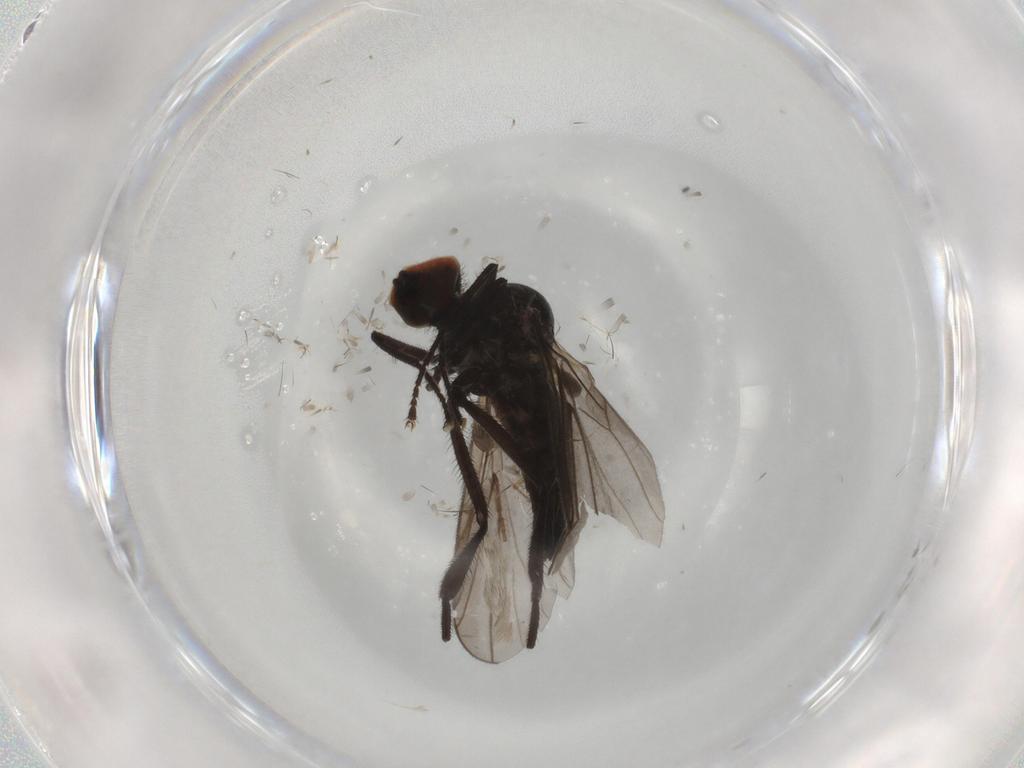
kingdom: Animalia
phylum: Arthropoda
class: Insecta
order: Diptera
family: Hybotidae
